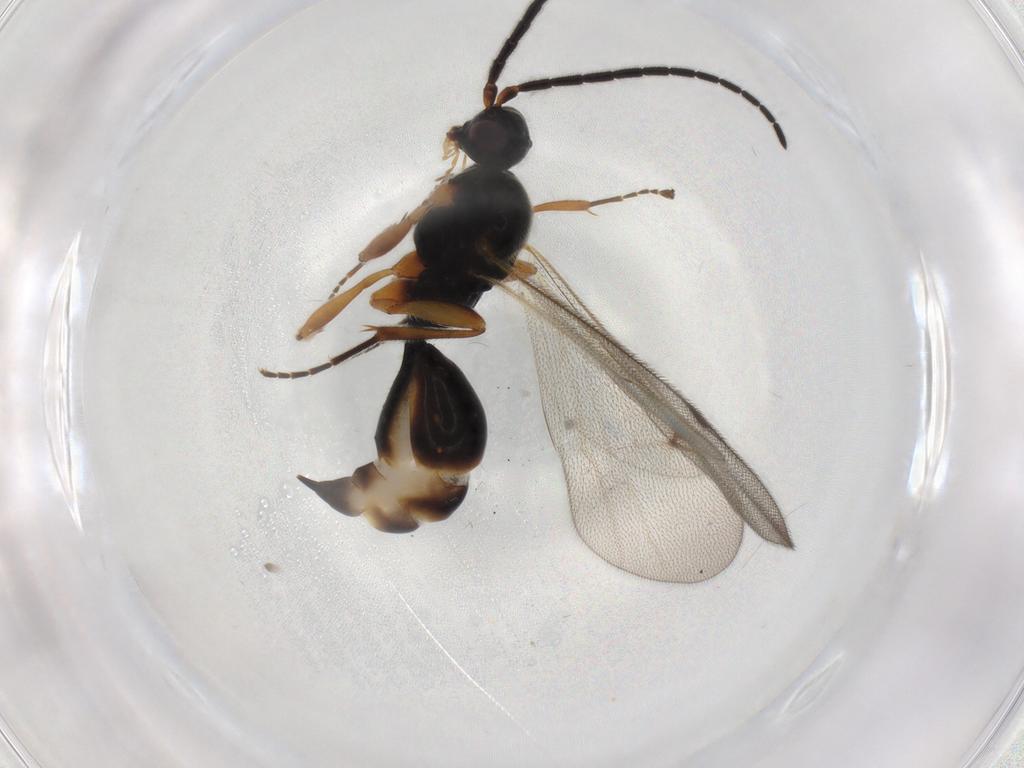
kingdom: Animalia
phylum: Arthropoda
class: Insecta
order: Hymenoptera
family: Proctotrupidae
